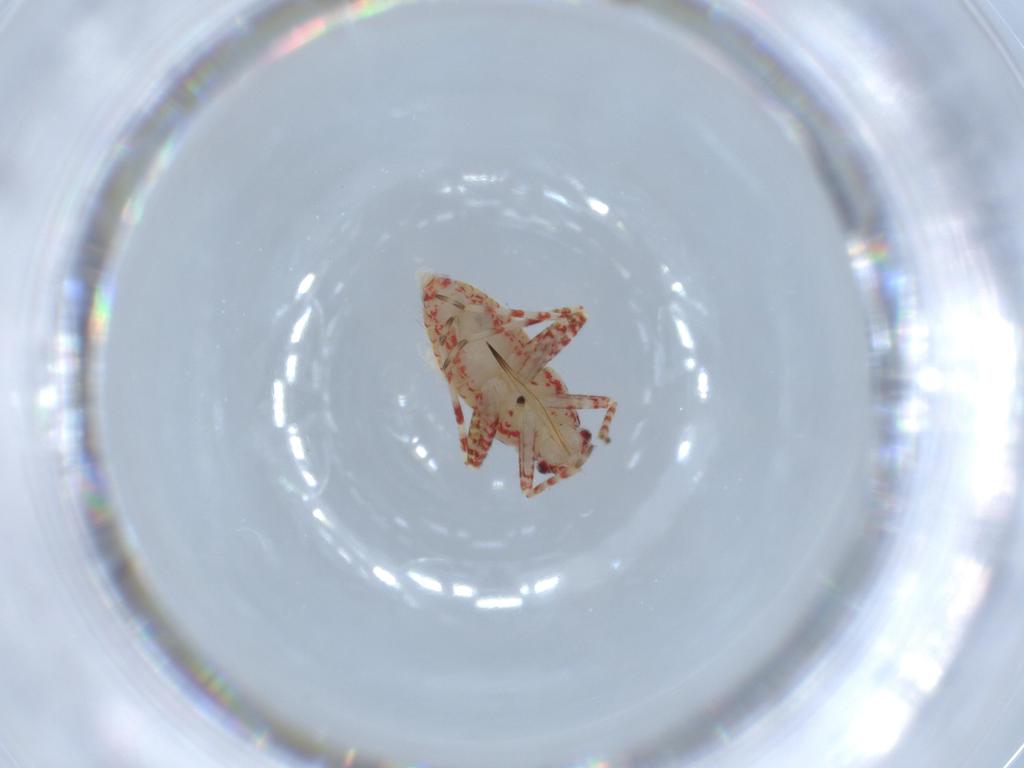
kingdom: Animalia
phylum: Arthropoda
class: Insecta
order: Hemiptera
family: Miridae
